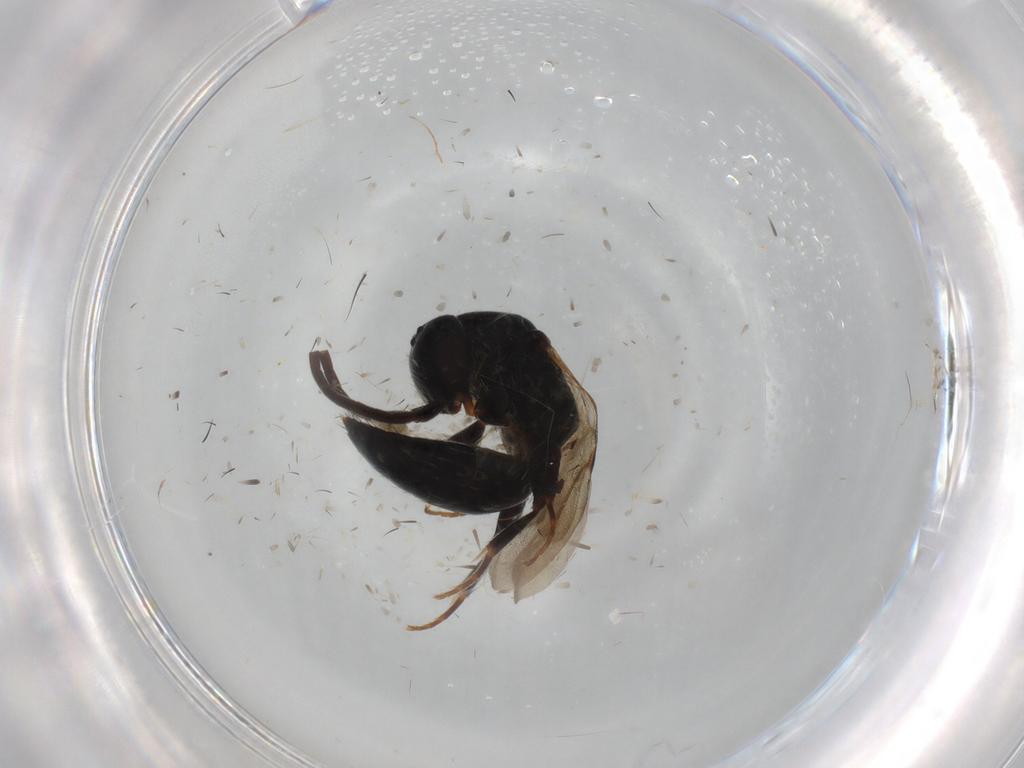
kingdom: Animalia
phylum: Arthropoda
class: Insecta
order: Hymenoptera
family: Bethylidae
